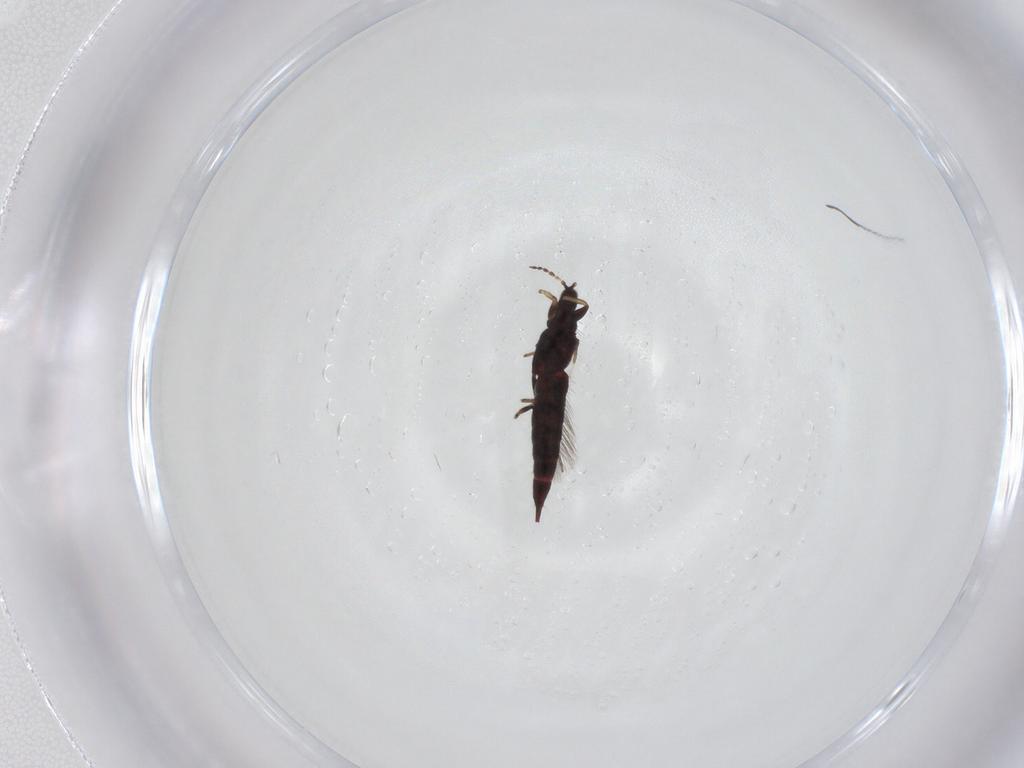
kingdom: Animalia
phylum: Arthropoda
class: Insecta
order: Thysanoptera
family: Phlaeothripidae
